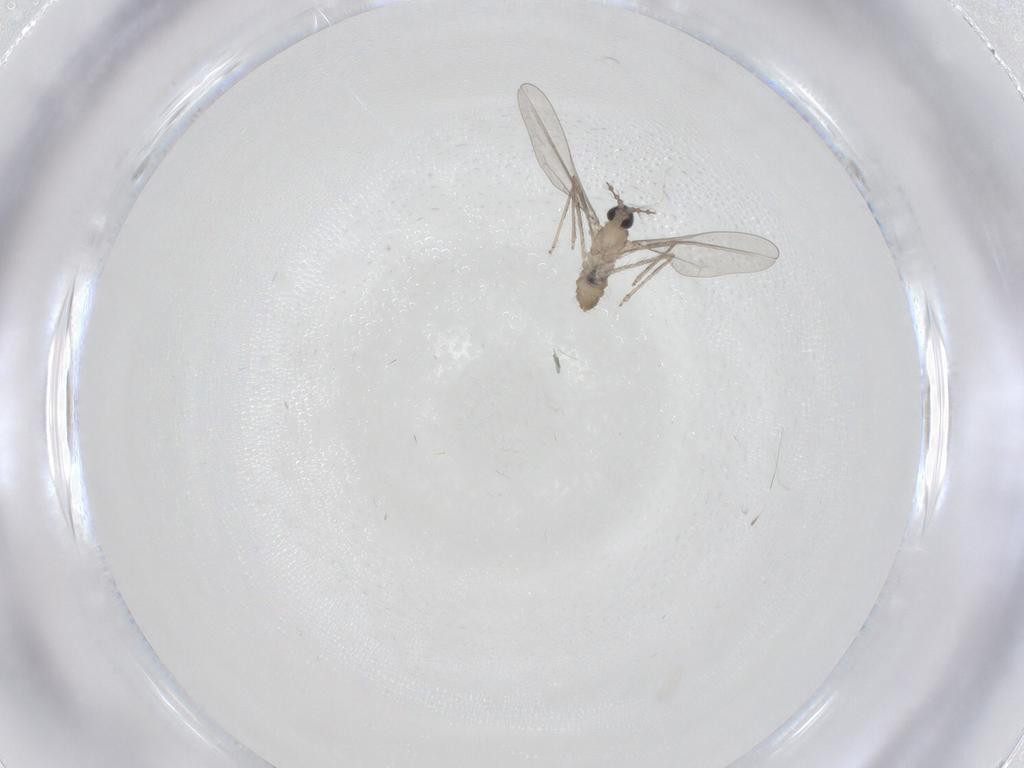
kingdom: Animalia
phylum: Arthropoda
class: Insecta
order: Diptera
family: Cecidomyiidae
